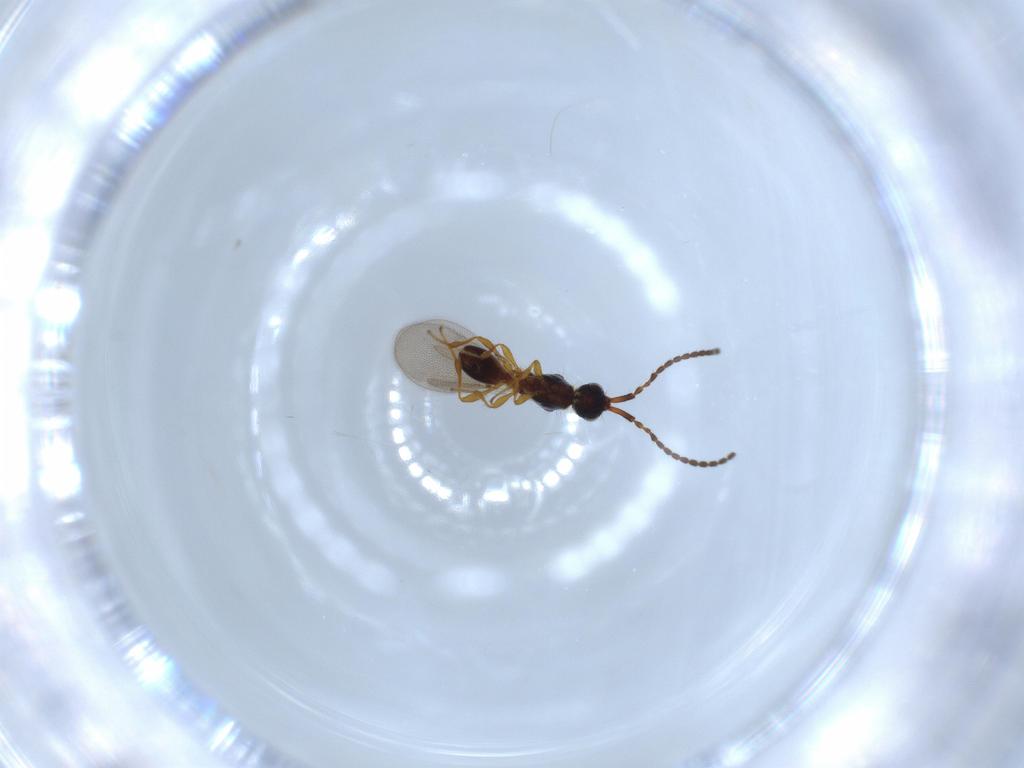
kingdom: Animalia
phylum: Arthropoda
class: Insecta
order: Hymenoptera
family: Diapriidae
